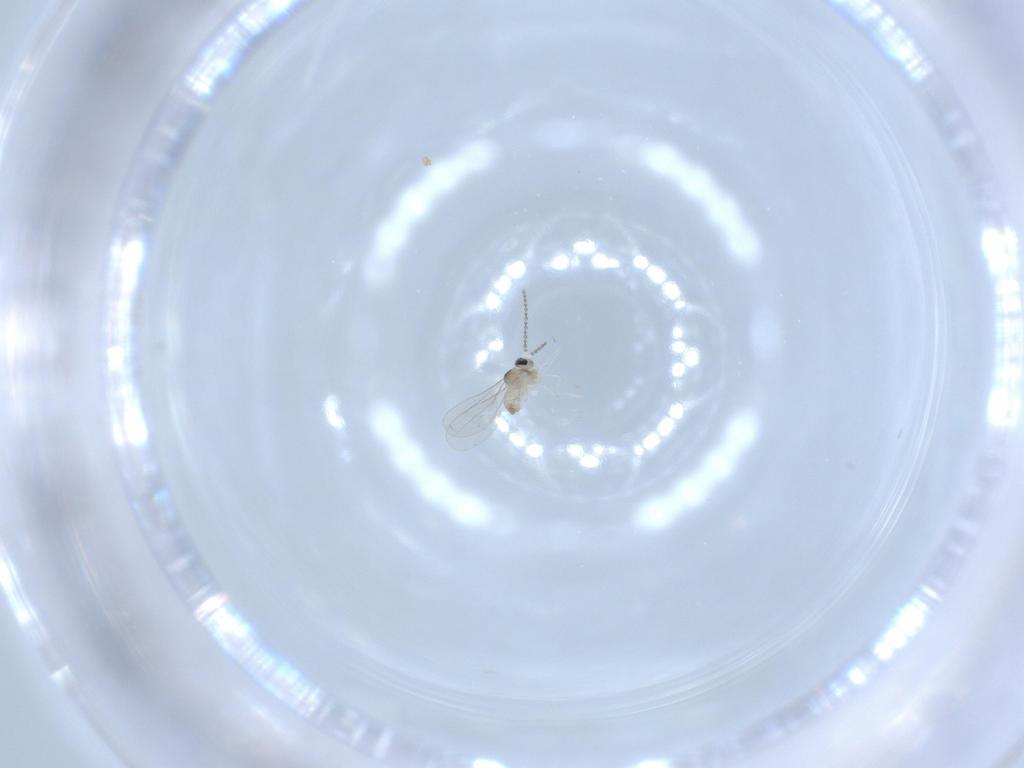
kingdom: Animalia
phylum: Arthropoda
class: Insecta
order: Diptera
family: Cecidomyiidae
